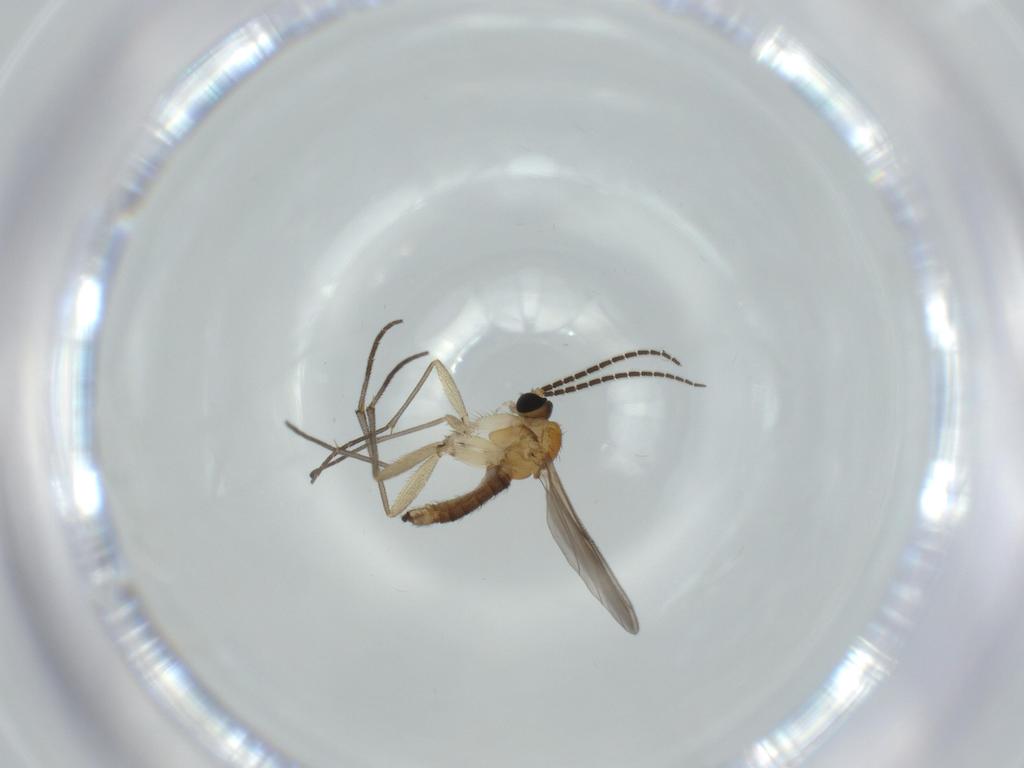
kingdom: Animalia
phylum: Arthropoda
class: Insecta
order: Diptera
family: Sciaridae
